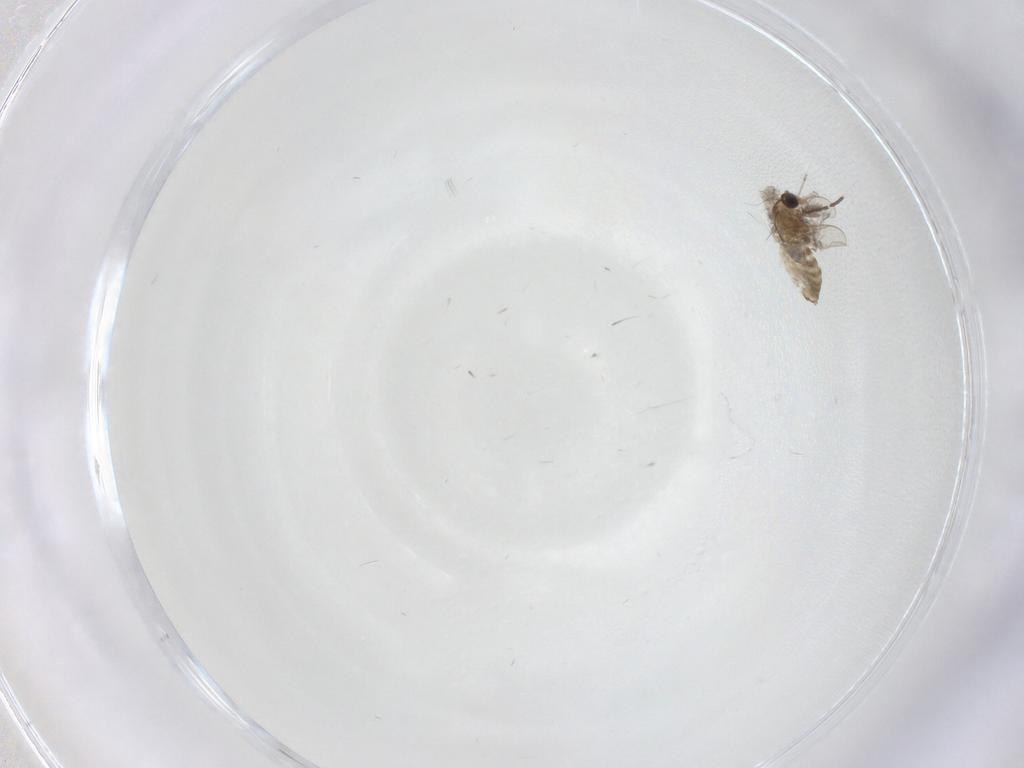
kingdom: Animalia
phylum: Arthropoda
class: Insecta
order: Diptera
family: Chironomidae
